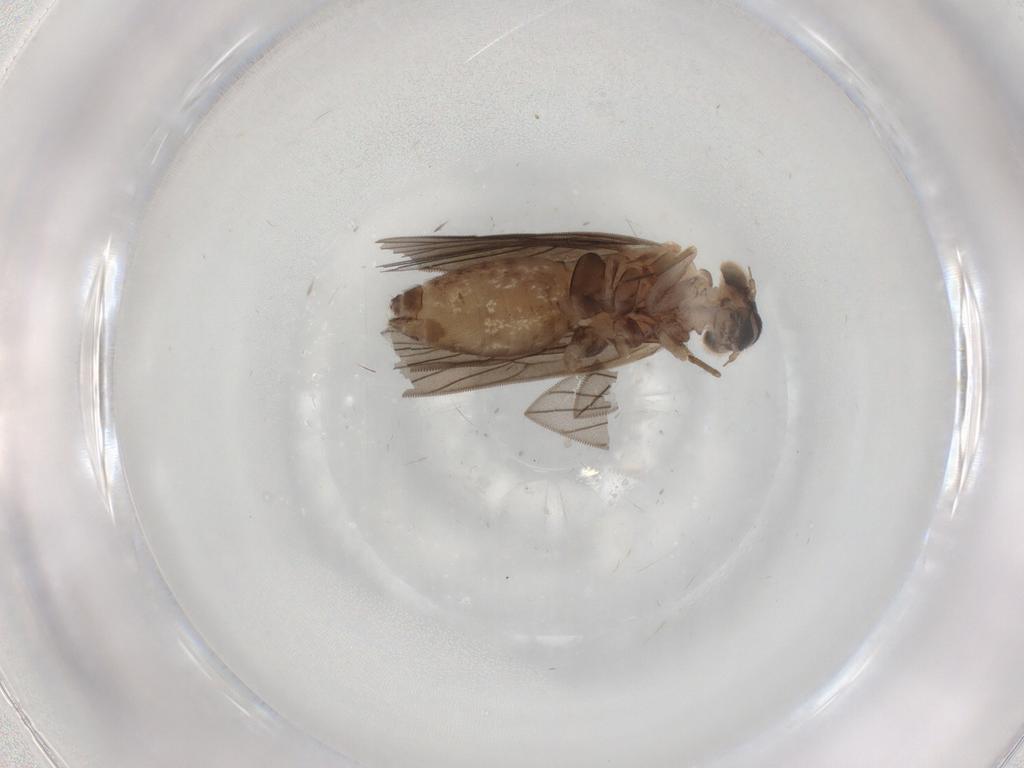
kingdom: Animalia
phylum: Arthropoda
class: Insecta
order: Psocodea
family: Lepidopsocidae
